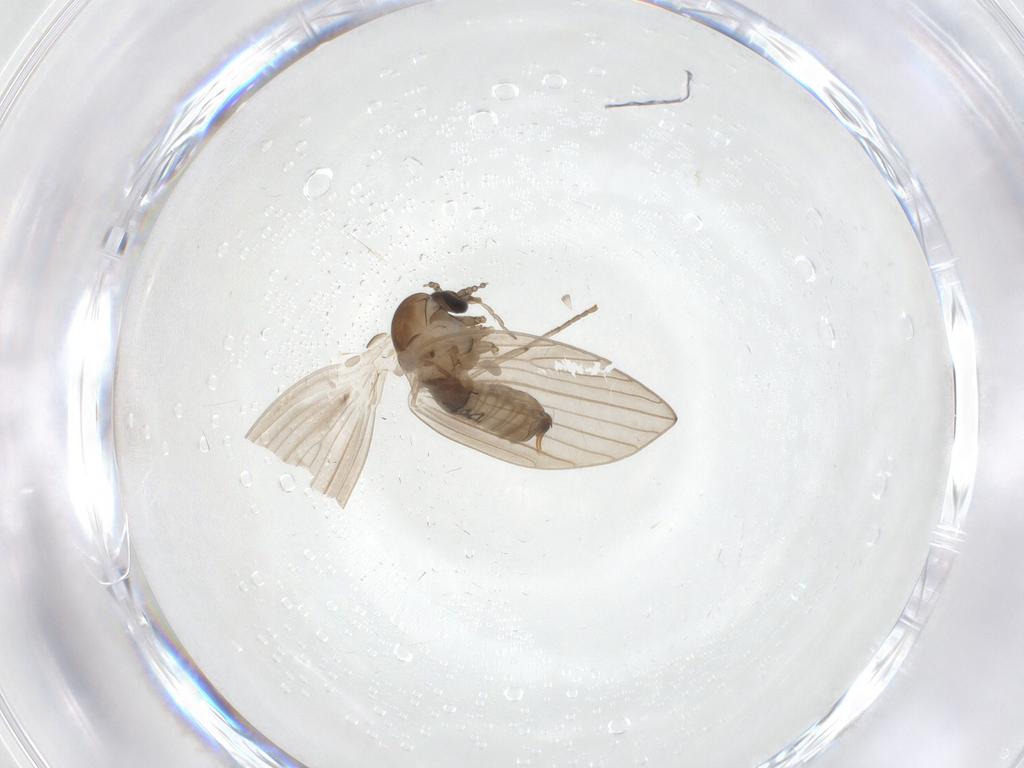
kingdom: Animalia
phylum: Arthropoda
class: Insecta
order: Diptera
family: Psychodidae
